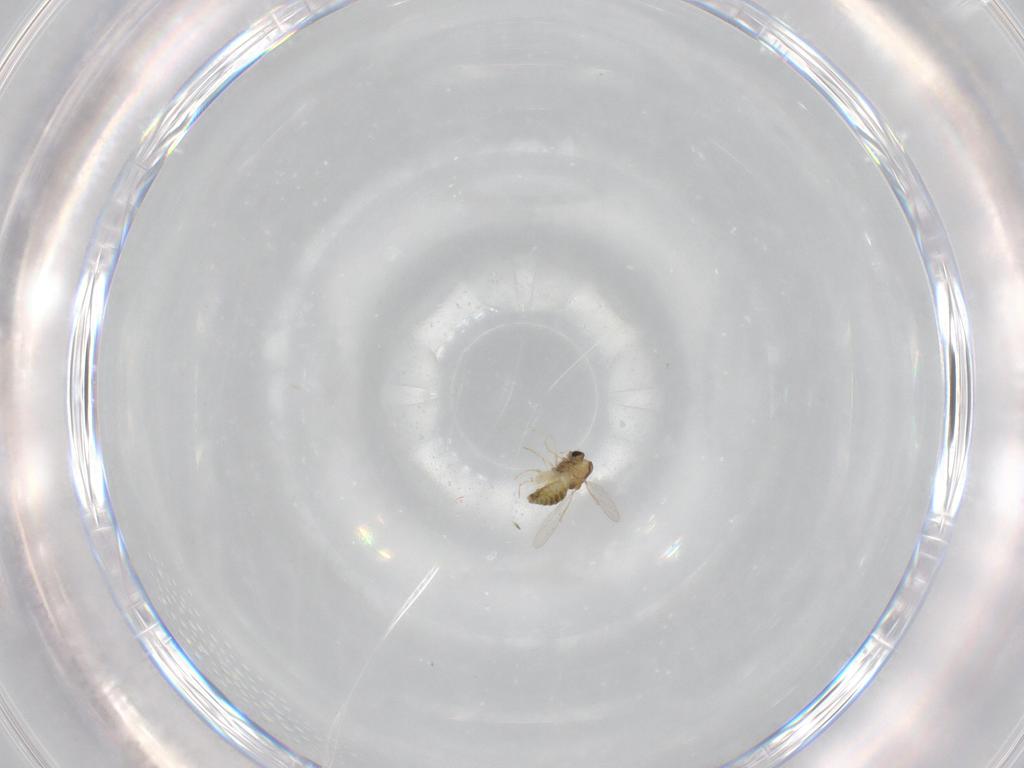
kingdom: Animalia
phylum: Arthropoda
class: Insecta
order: Diptera
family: Chironomidae
